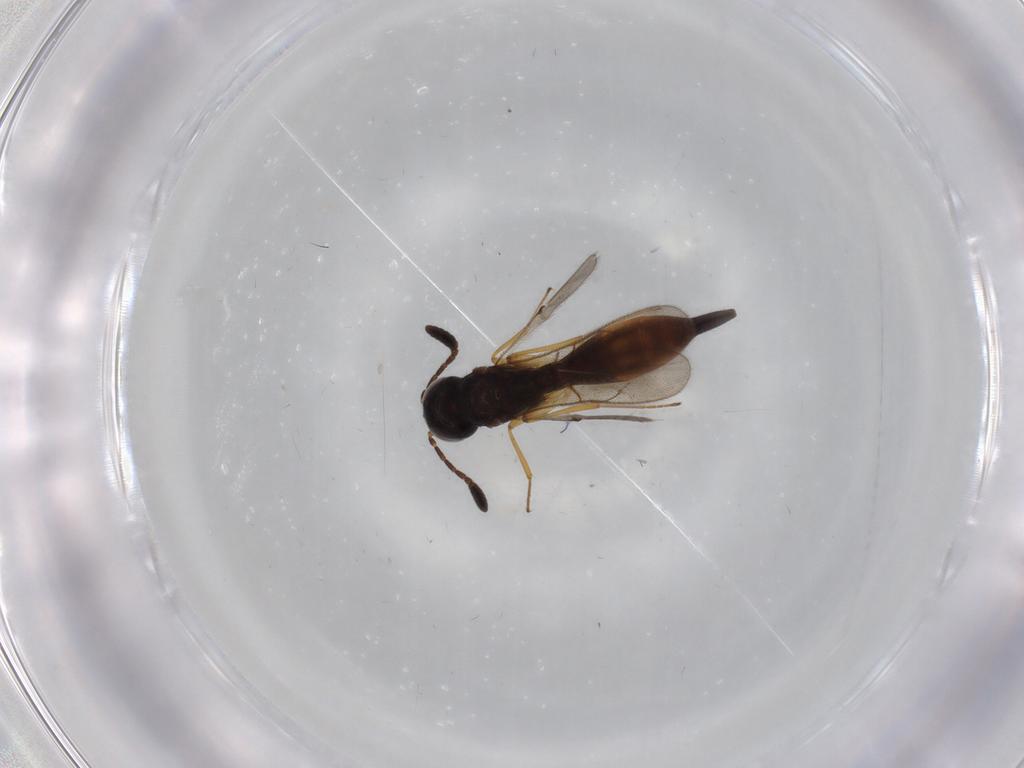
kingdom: Animalia
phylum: Arthropoda
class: Insecta
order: Hymenoptera
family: Figitidae
